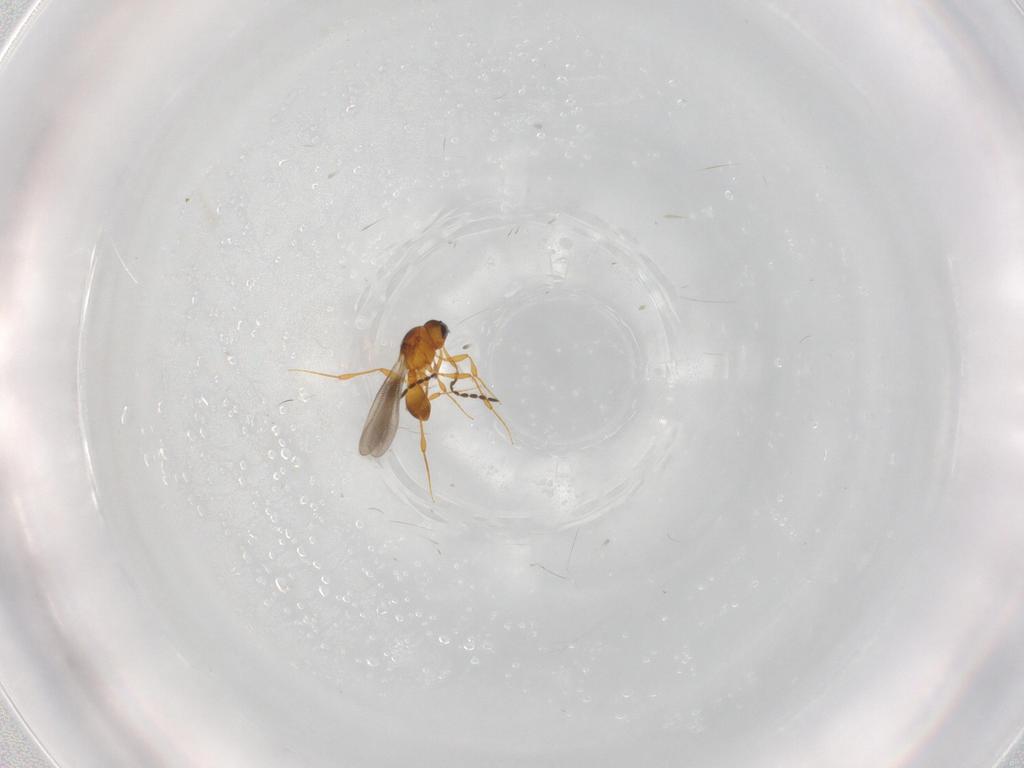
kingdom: Animalia
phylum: Arthropoda
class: Insecta
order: Hymenoptera
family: Platygastridae
